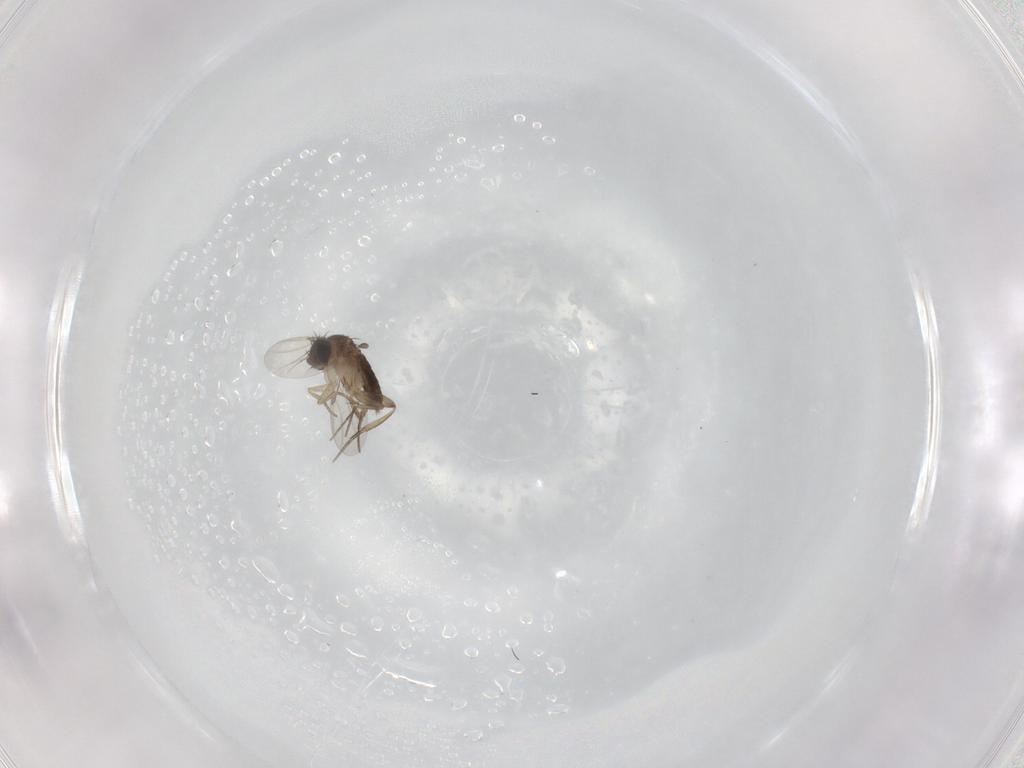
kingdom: Animalia
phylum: Arthropoda
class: Insecta
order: Diptera
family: Phoridae
